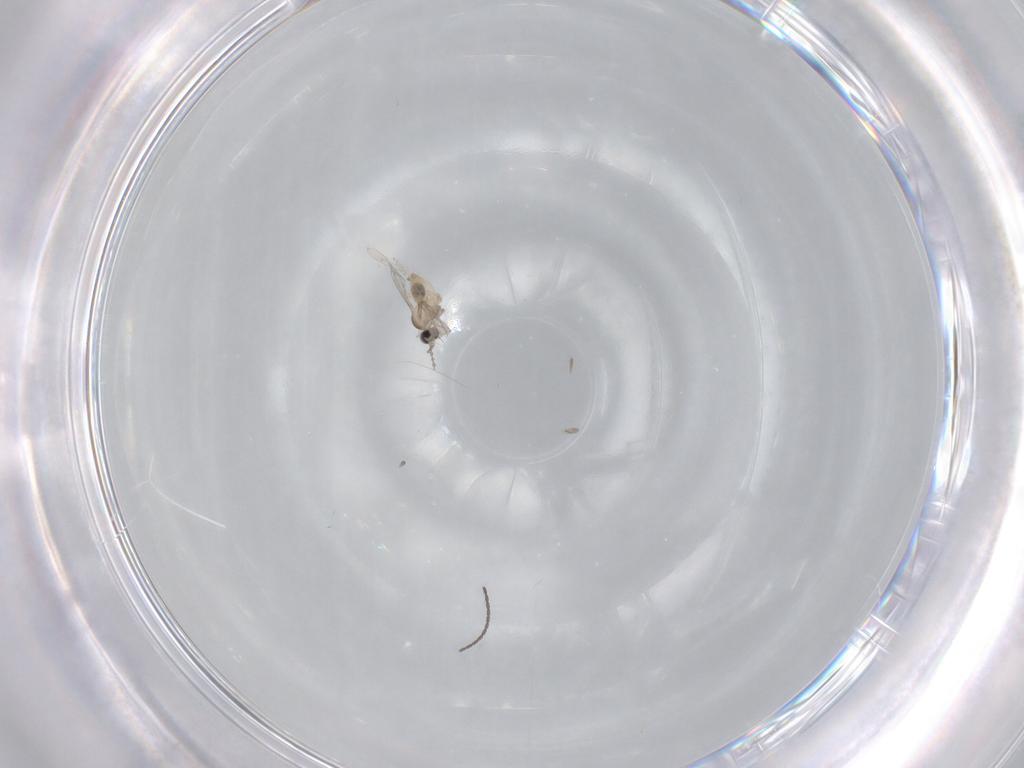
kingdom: Animalia
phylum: Arthropoda
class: Insecta
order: Diptera
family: Cecidomyiidae
